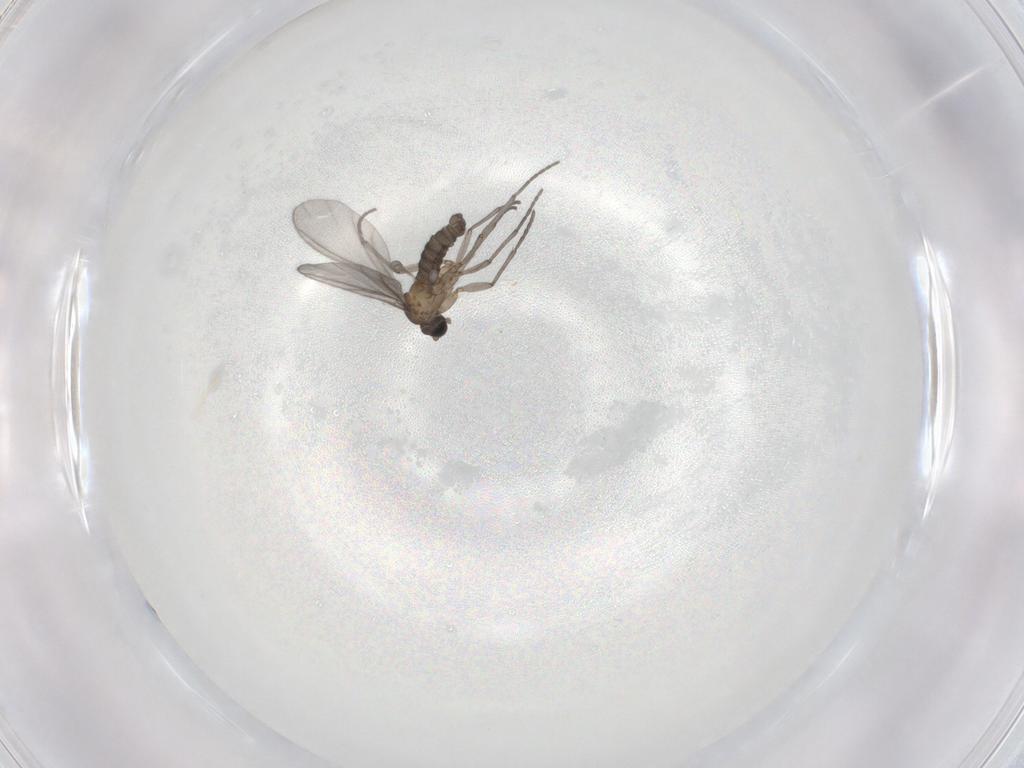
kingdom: Animalia
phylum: Arthropoda
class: Insecta
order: Diptera
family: Sciaridae
